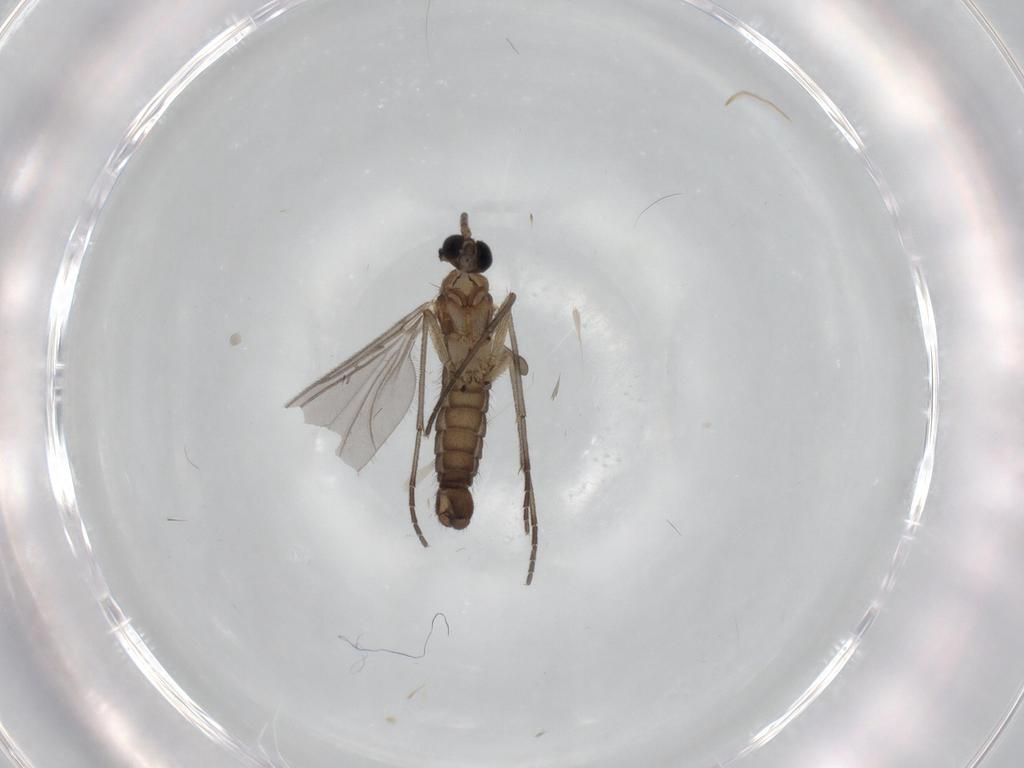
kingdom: Animalia
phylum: Arthropoda
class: Insecta
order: Diptera
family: Sciaridae
